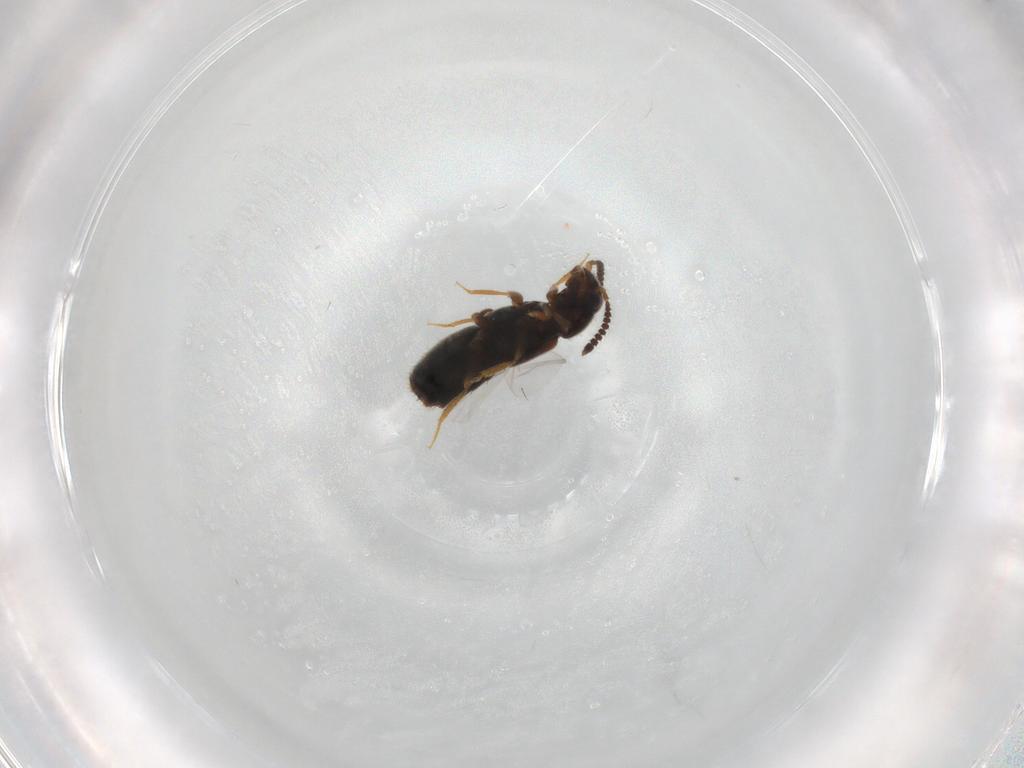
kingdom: Animalia
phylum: Arthropoda
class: Insecta
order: Coleoptera
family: Staphylinidae
